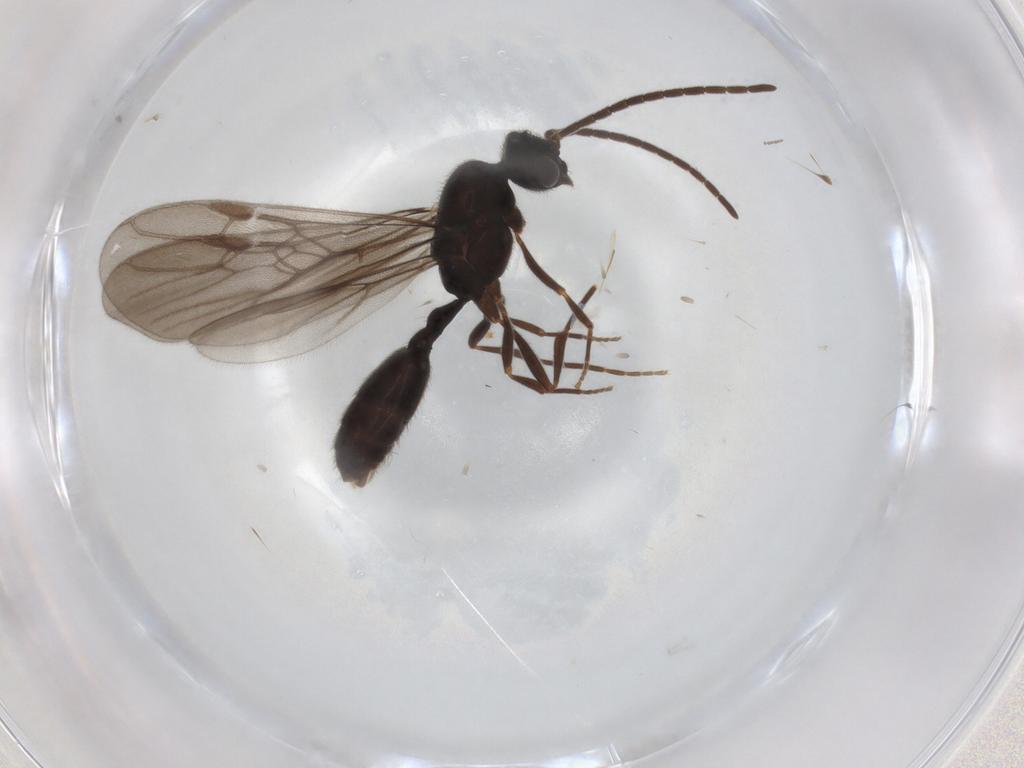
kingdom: Animalia
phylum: Arthropoda
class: Insecta
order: Hymenoptera
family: Formicidae
